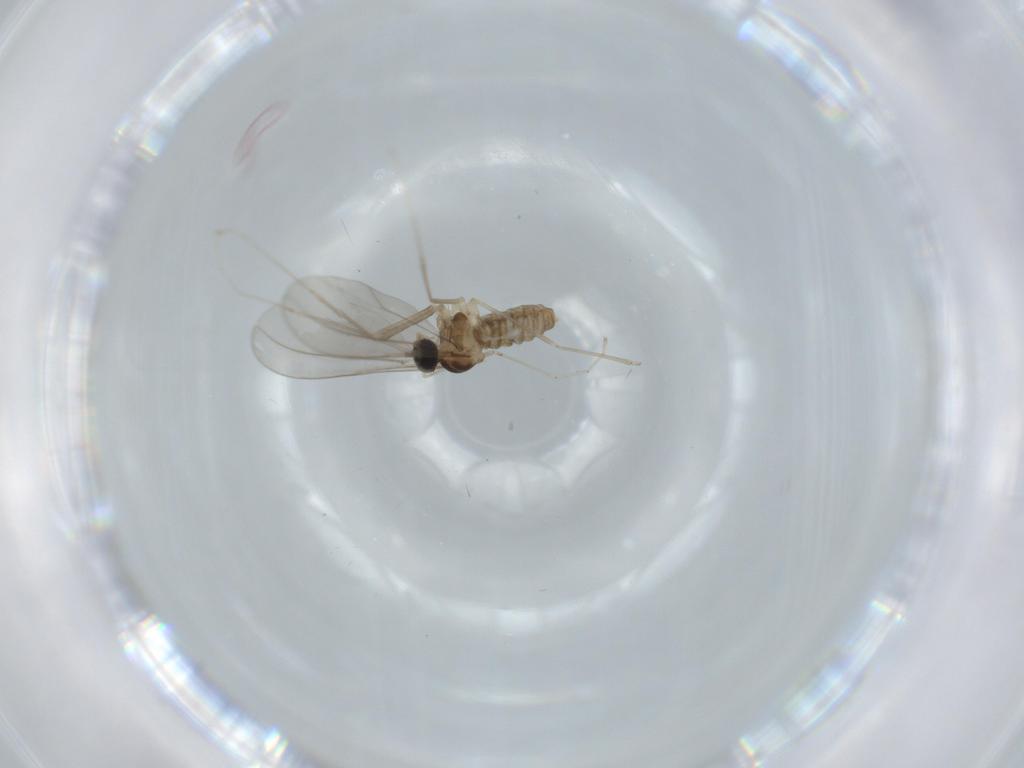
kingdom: Animalia
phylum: Arthropoda
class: Insecta
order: Diptera
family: Cecidomyiidae
